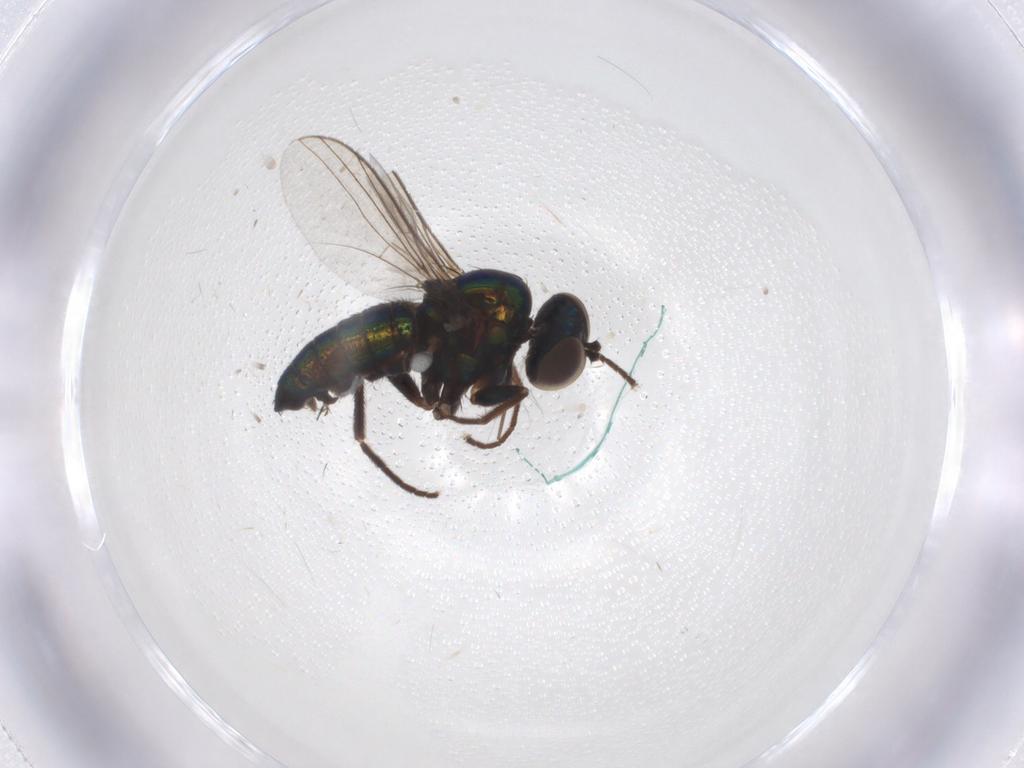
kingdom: Animalia
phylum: Arthropoda
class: Insecta
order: Diptera
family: Dolichopodidae
